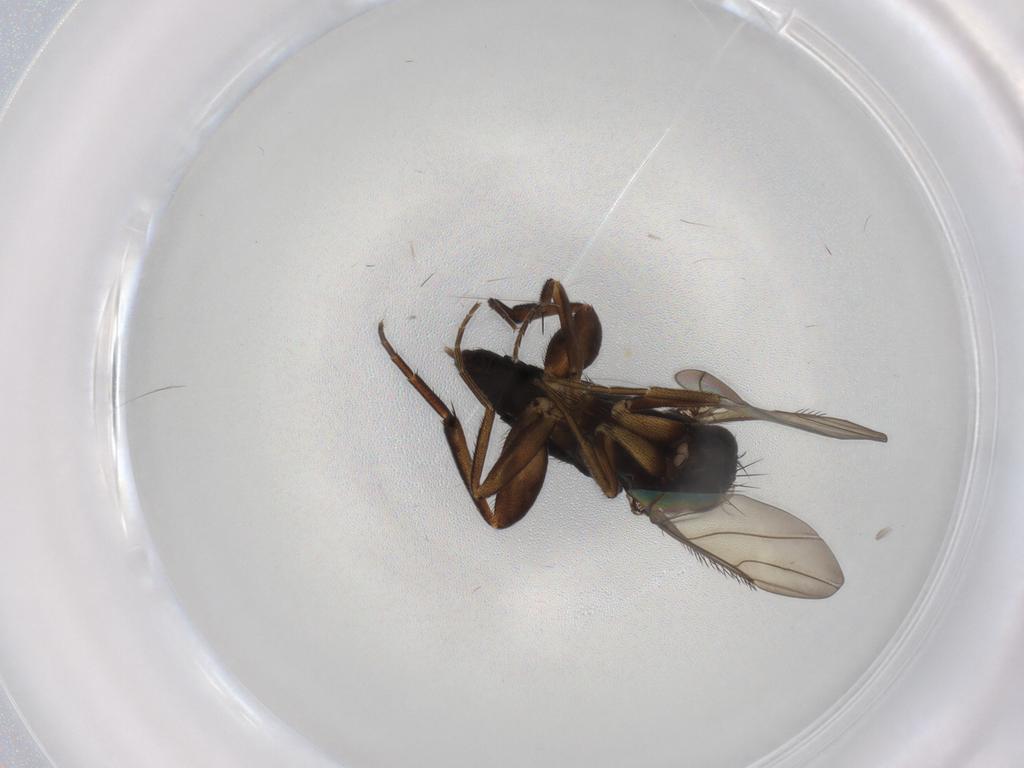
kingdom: Animalia
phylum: Arthropoda
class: Insecta
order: Diptera
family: Phoridae
